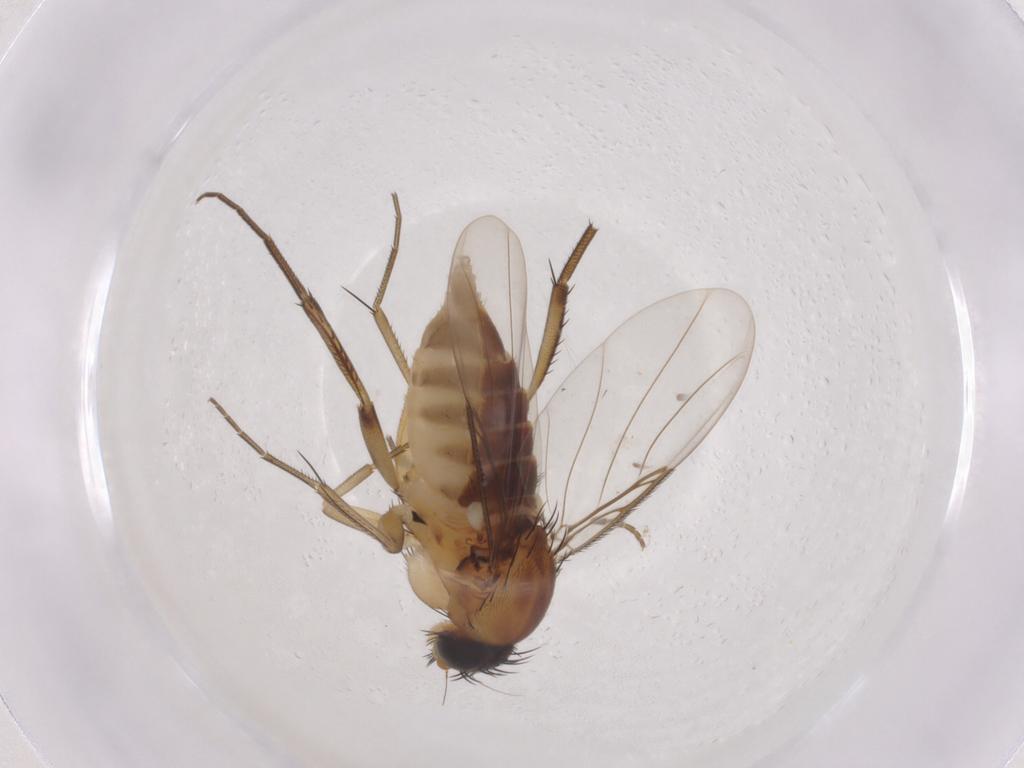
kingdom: Animalia
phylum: Arthropoda
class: Insecta
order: Diptera
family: Phoridae
